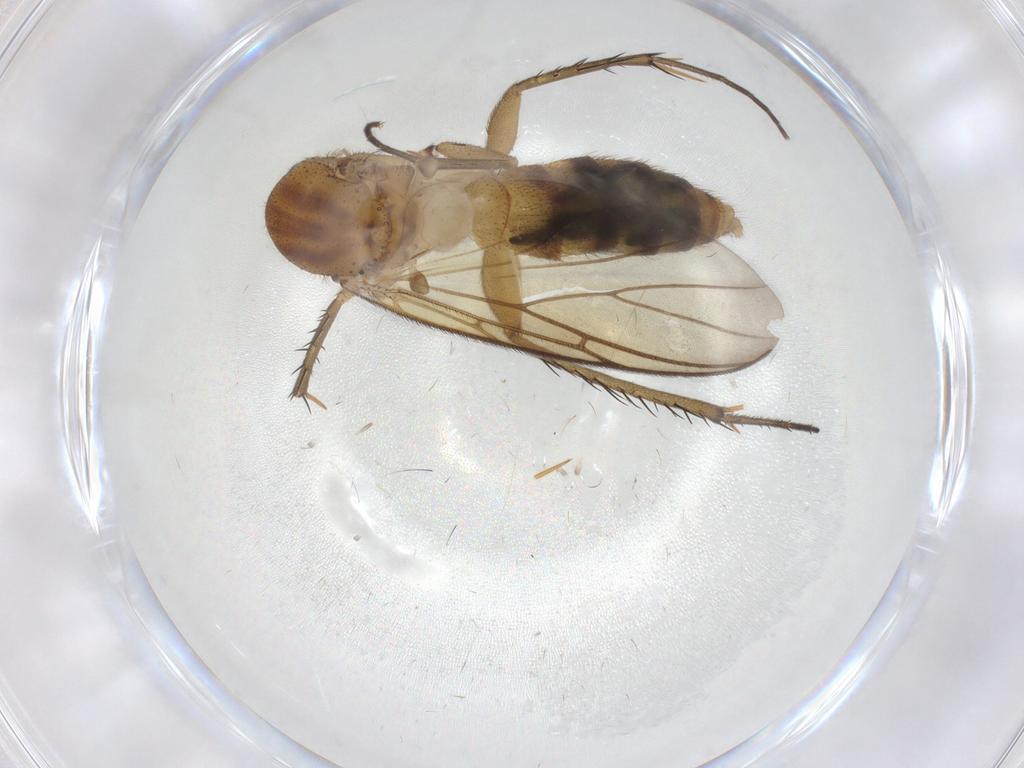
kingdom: Animalia
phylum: Arthropoda
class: Insecta
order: Diptera
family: Mycetophilidae
